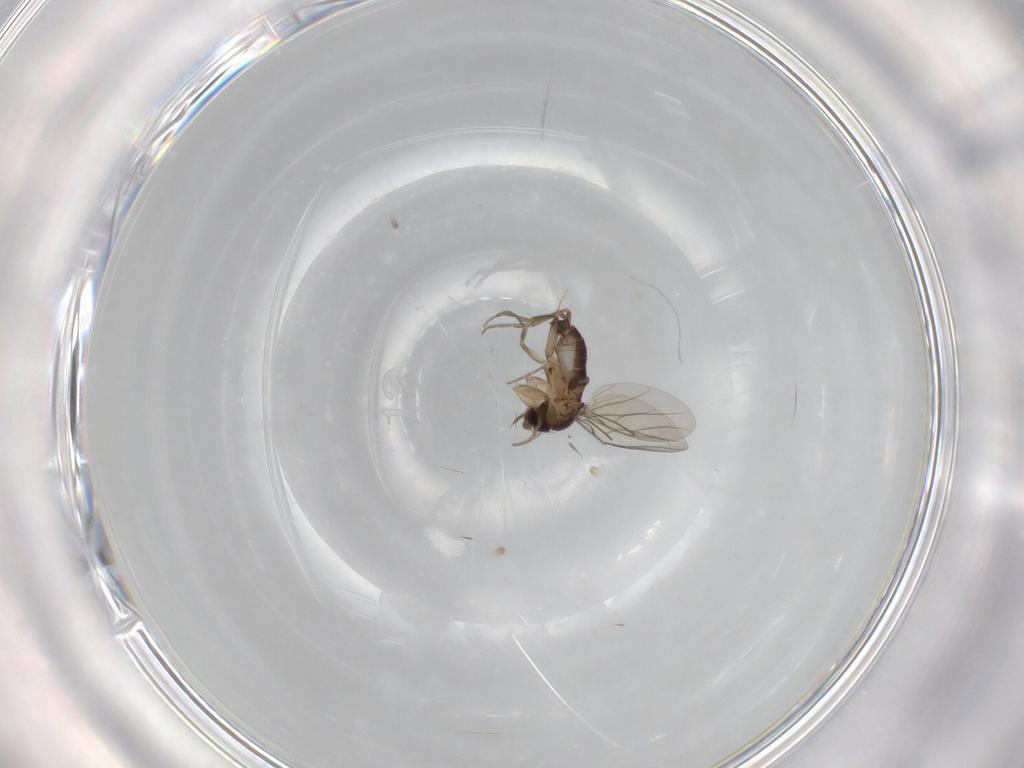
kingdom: Animalia
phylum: Arthropoda
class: Insecta
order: Diptera
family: Phoridae
